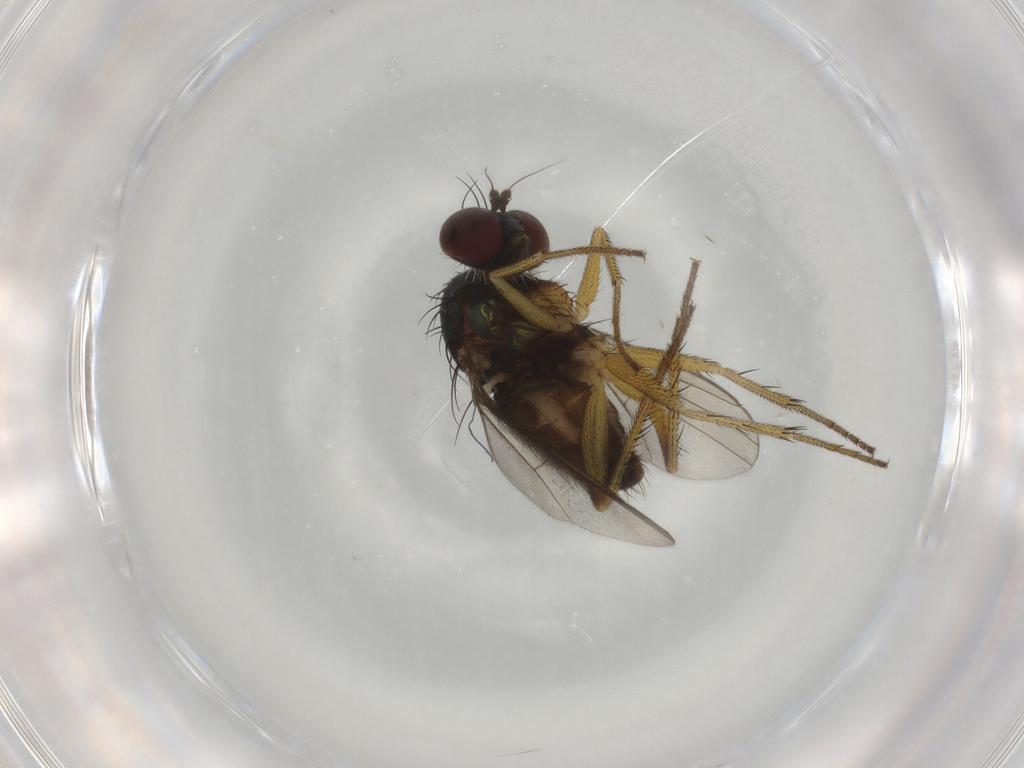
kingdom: Animalia
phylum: Arthropoda
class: Insecta
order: Diptera
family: Dolichopodidae
